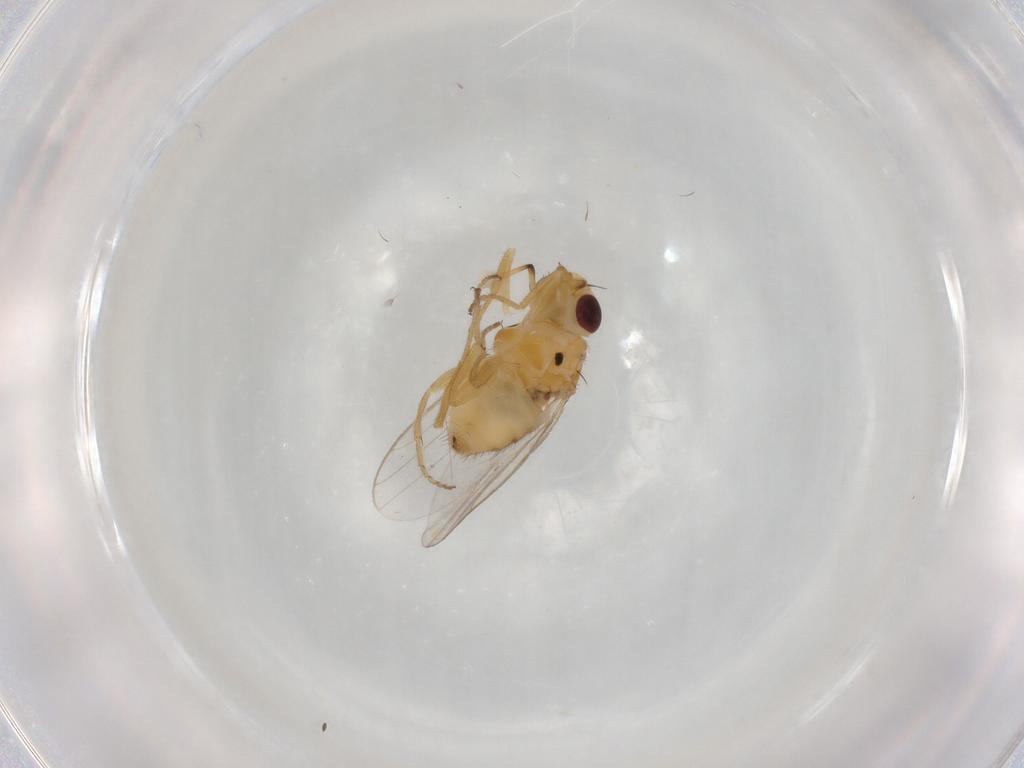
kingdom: Animalia
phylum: Arthropoda
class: Insecta
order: Diptera
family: Chloropidae
